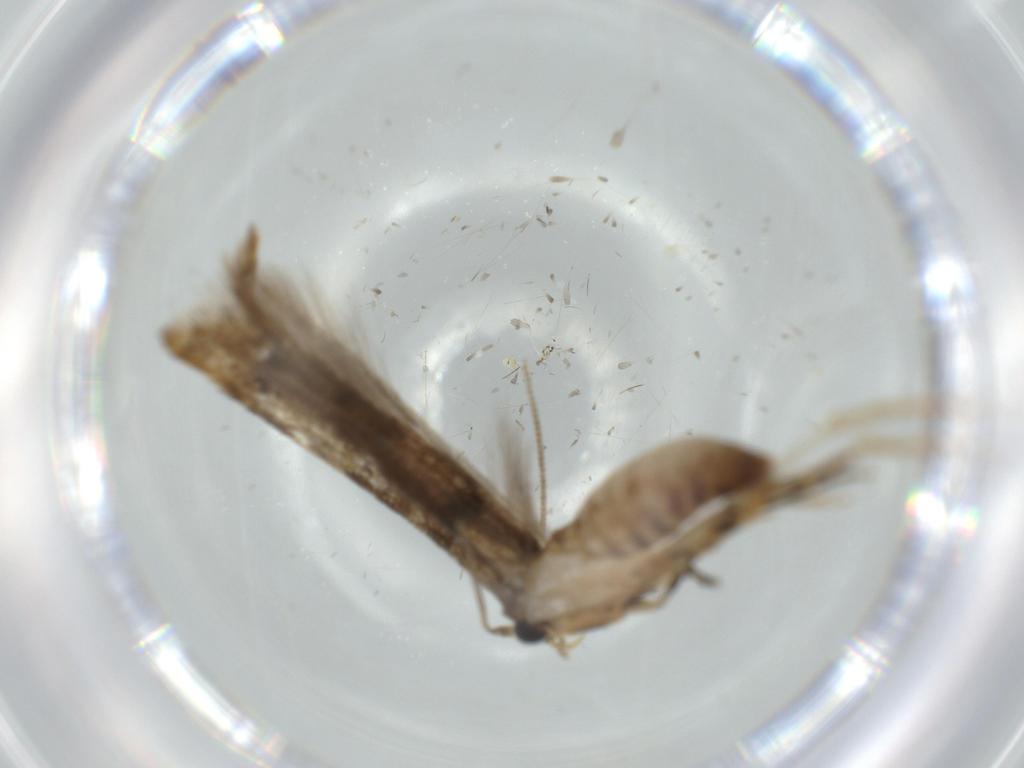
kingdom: Animalia
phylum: Arthropoda
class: Insecta
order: Lepidoptera
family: Tineidae
